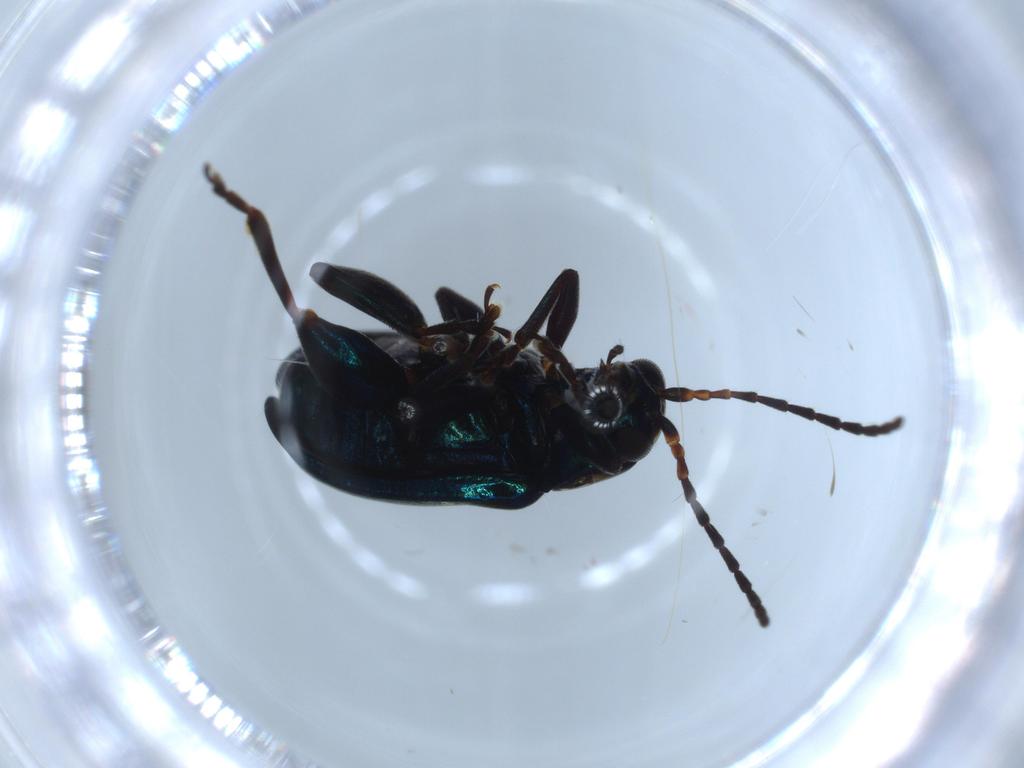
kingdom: Animalia
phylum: Arthropoda
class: Insecta
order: Coleoptera
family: Chrysomelidae
